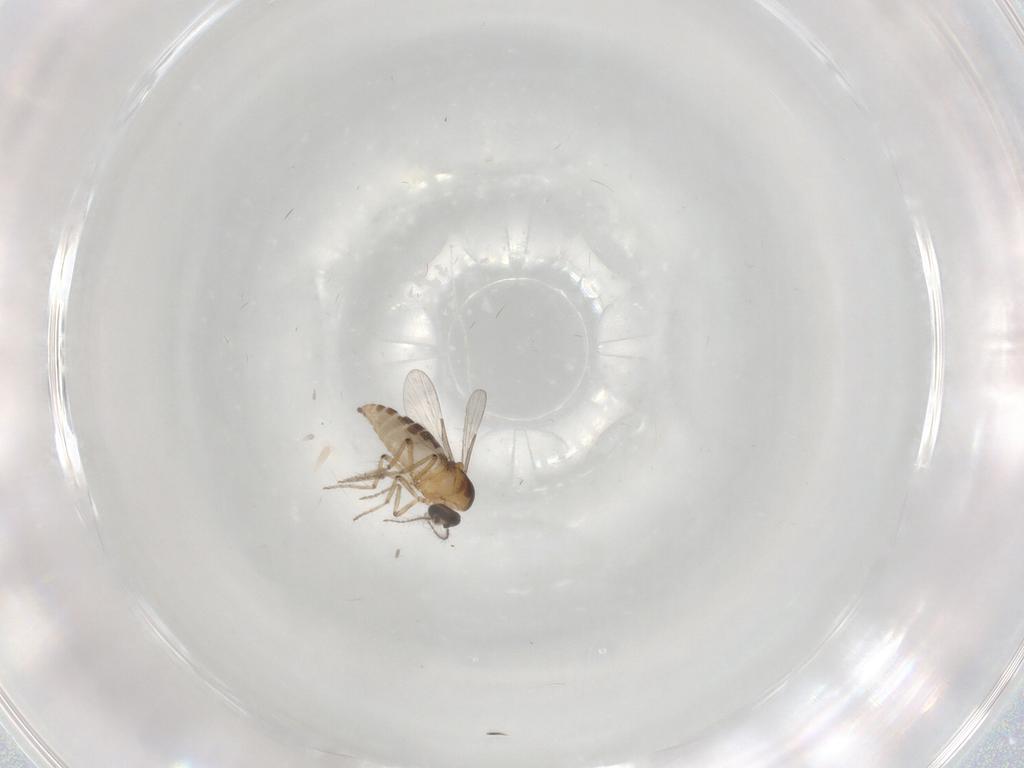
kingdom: Animalia
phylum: Arthropoda
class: Insecta
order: Diptera
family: Ceratopogonidae
